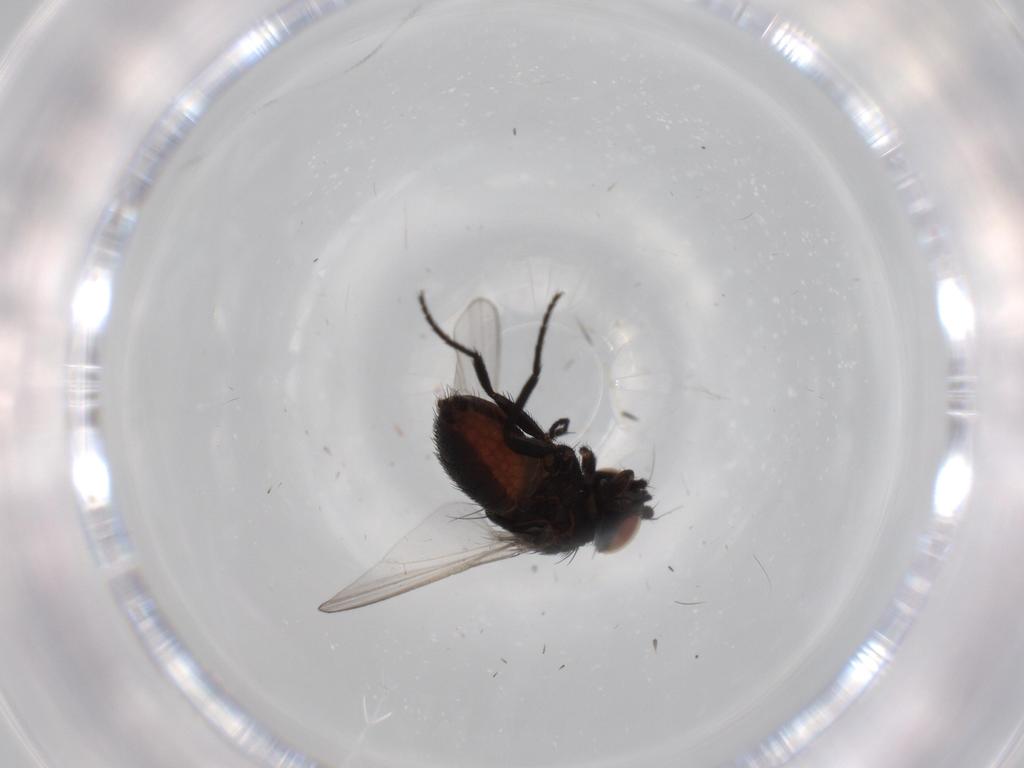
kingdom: Animalia
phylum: Arthropoda
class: Insecta
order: Diptera
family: Milichiidae
